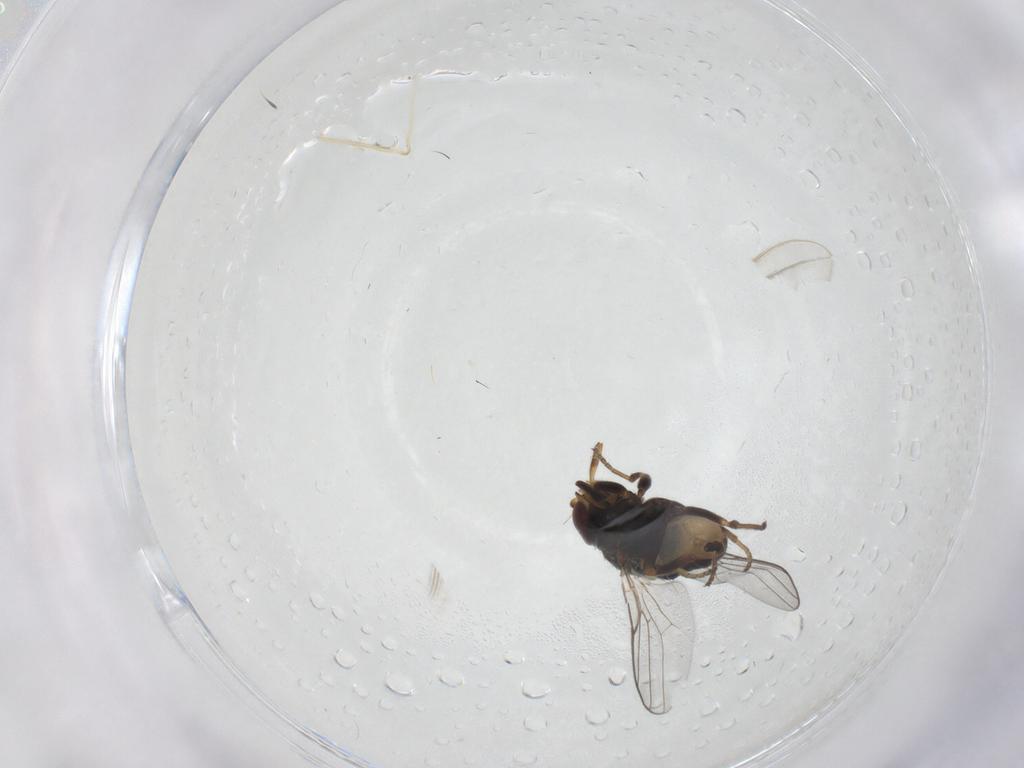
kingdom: Animalia
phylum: Arthropoda
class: Insecta
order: Diptera
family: Chloropidae
